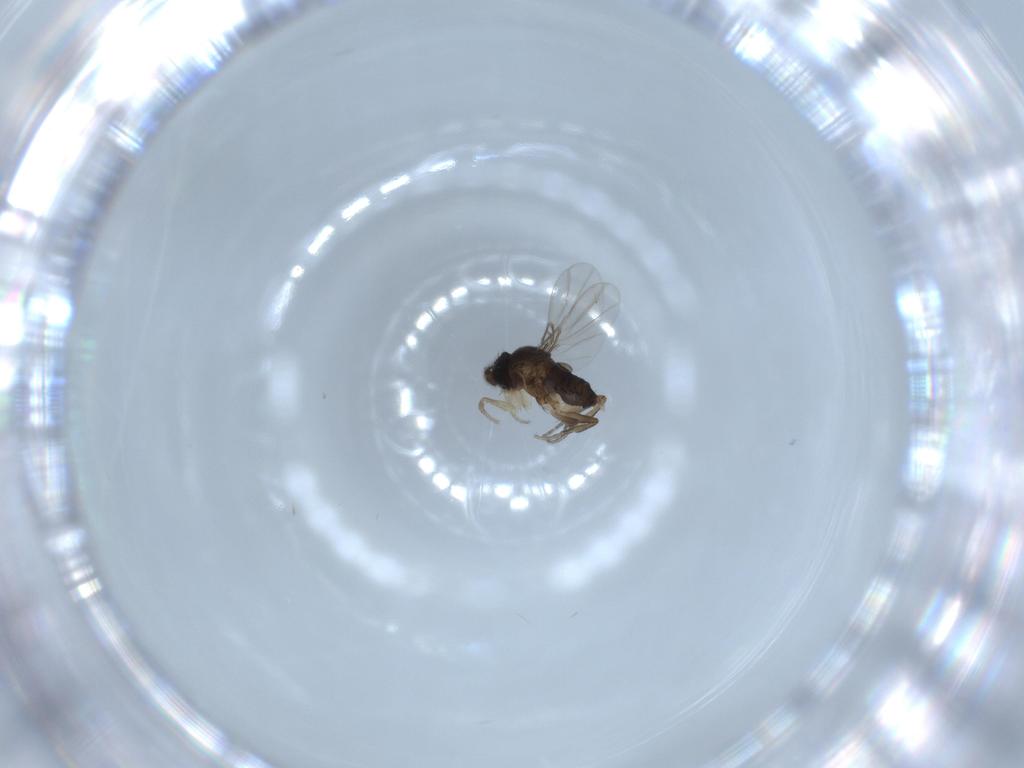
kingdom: Animalia
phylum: Arthropoda
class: Insecta
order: Diptera
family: Phoridae
